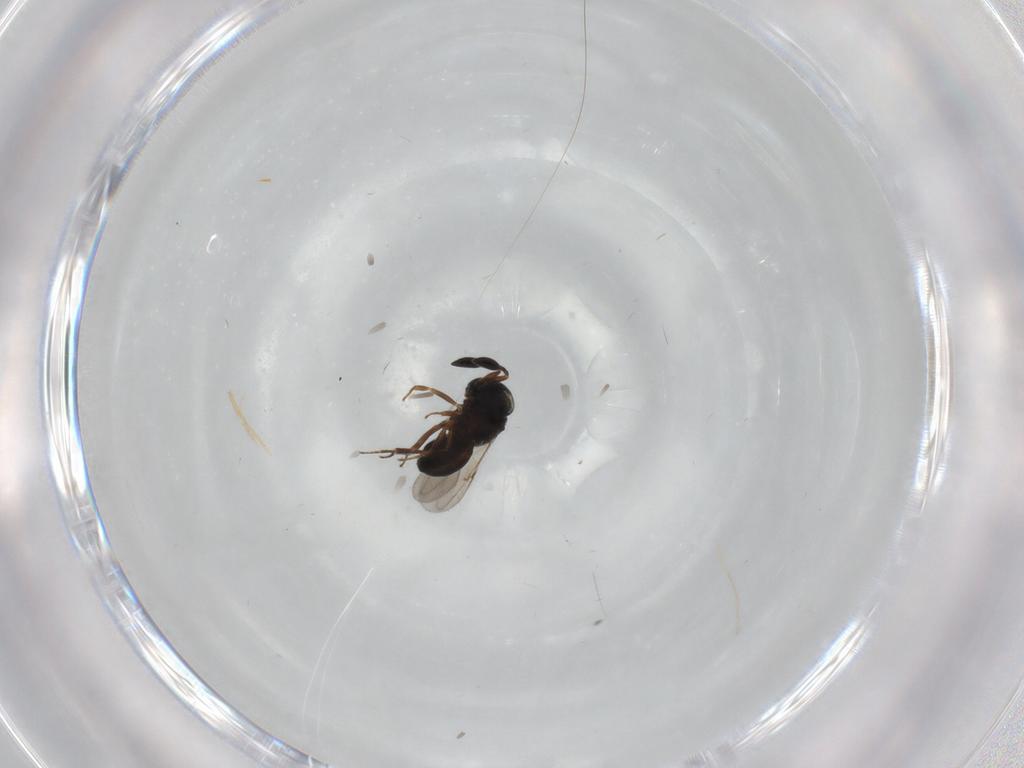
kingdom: Animalia
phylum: Arthropoda
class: Insecta
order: Hymenoptera
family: Scelionidae
